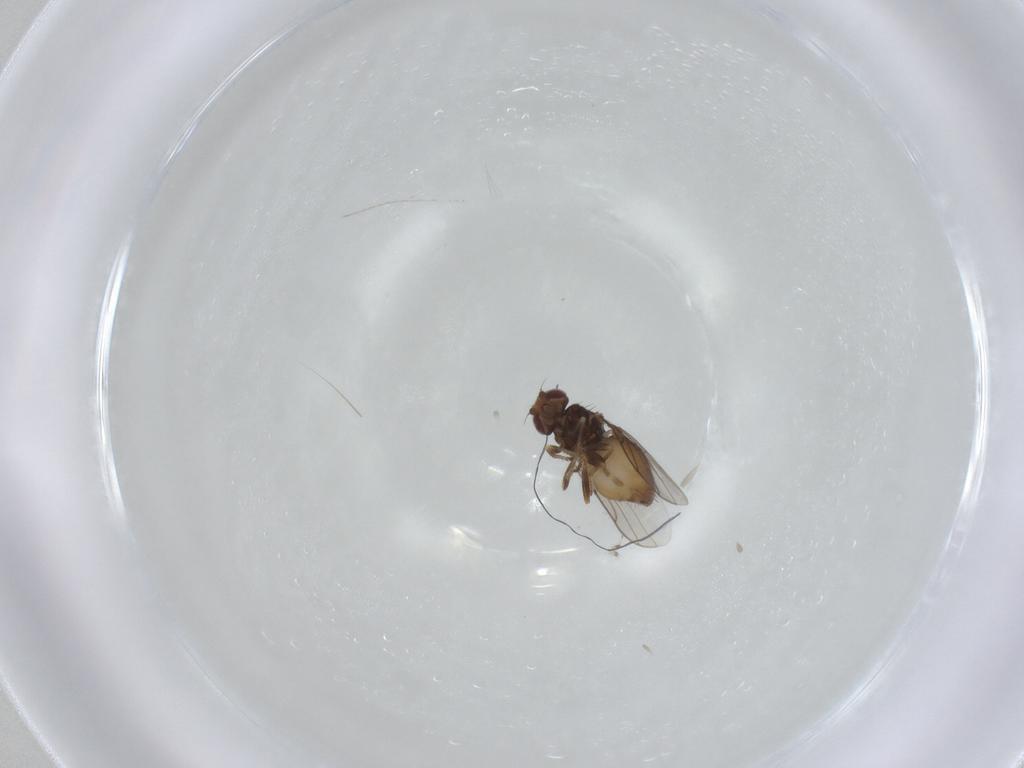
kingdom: Animalia
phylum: Arthropoda
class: Insecta
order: Diptera
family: Chloropidae
